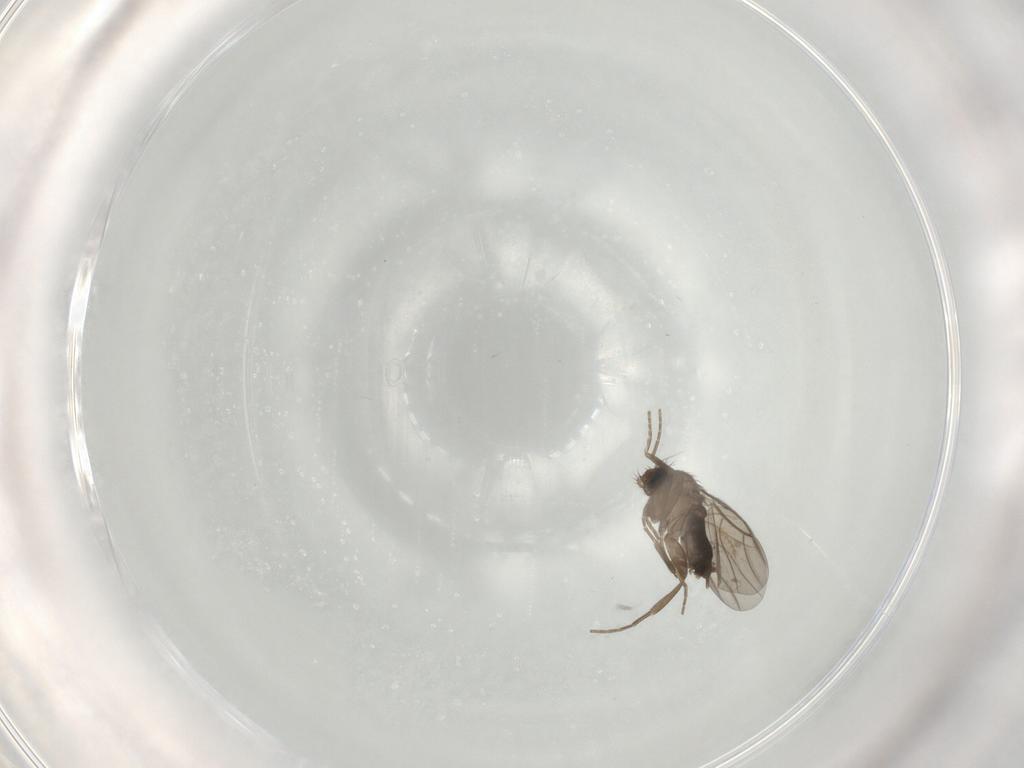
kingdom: Animalia
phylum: Arthropoda
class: Insecta
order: Diptera
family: Phoridae
